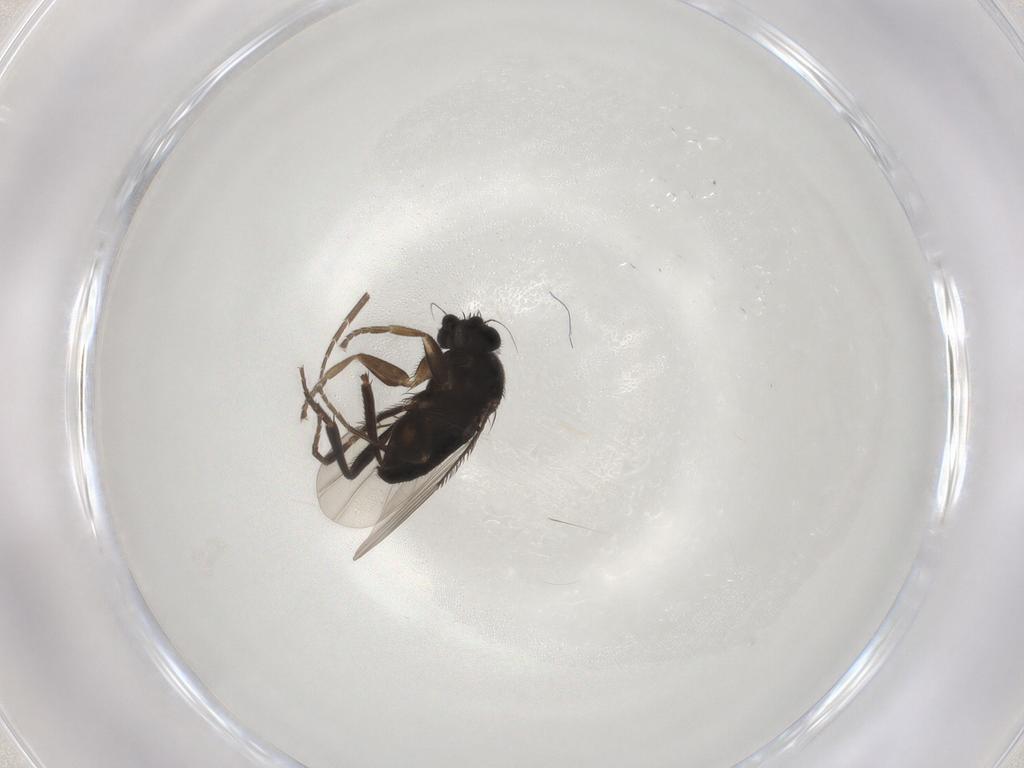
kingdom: Animalia
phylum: Arthropoda
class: Insecta
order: Diptera
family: Phoridae
